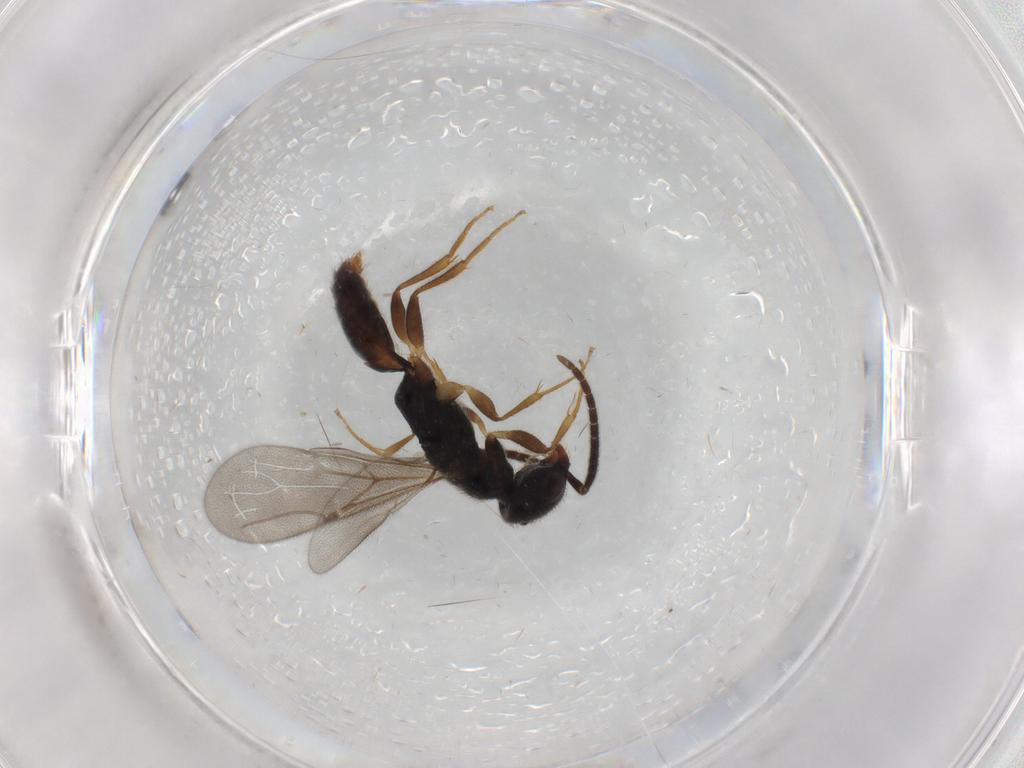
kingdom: Animalia
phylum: Arthropoda
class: Insecta
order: Hymenoptera
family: Bethylidae
